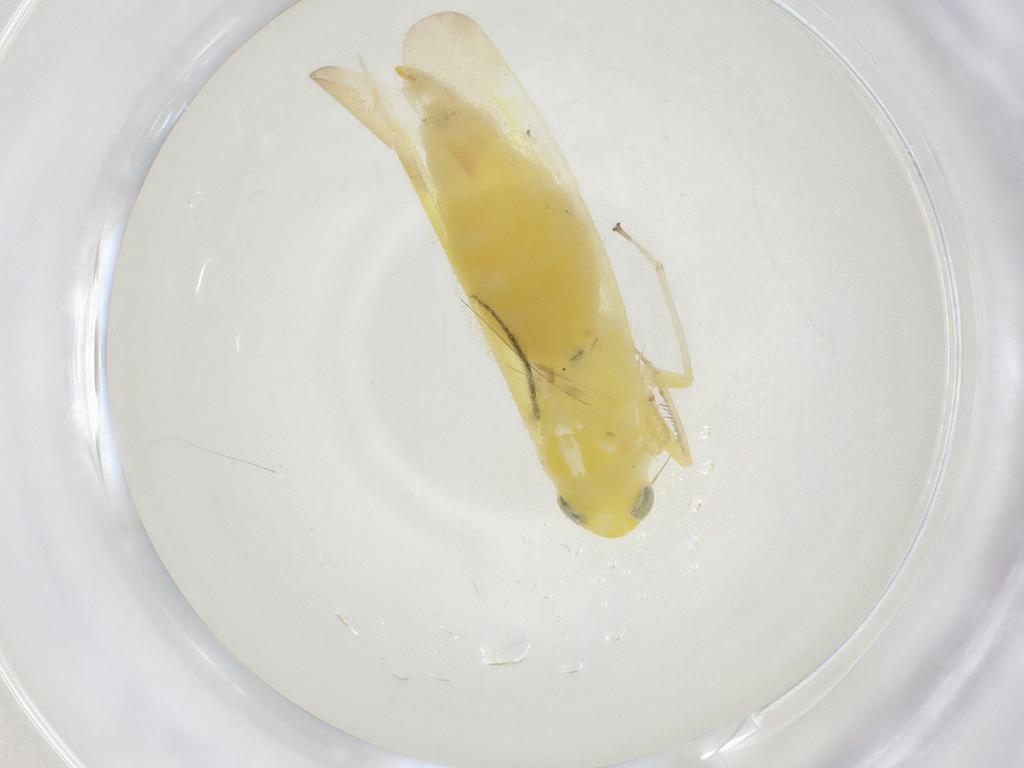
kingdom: Animalia
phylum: Arthropoda
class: Insecta
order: Hemiptera
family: Cicadellidae
